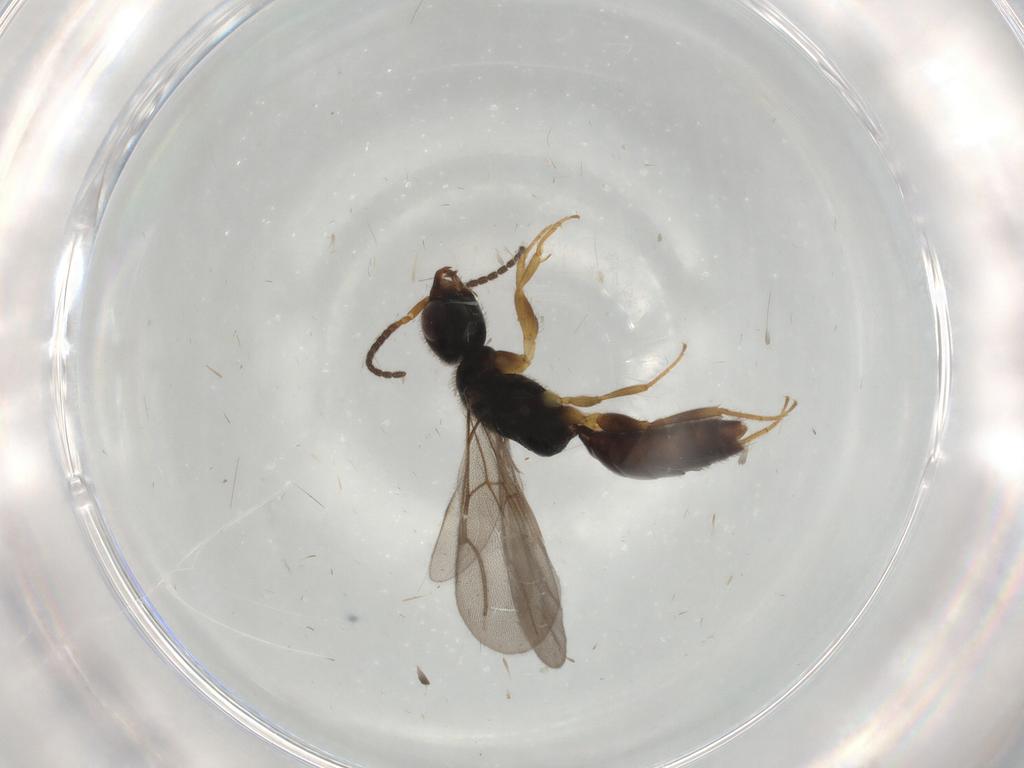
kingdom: Animalia
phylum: Arthropoda
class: Insecta
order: Hymenoptera
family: Bethylidae
